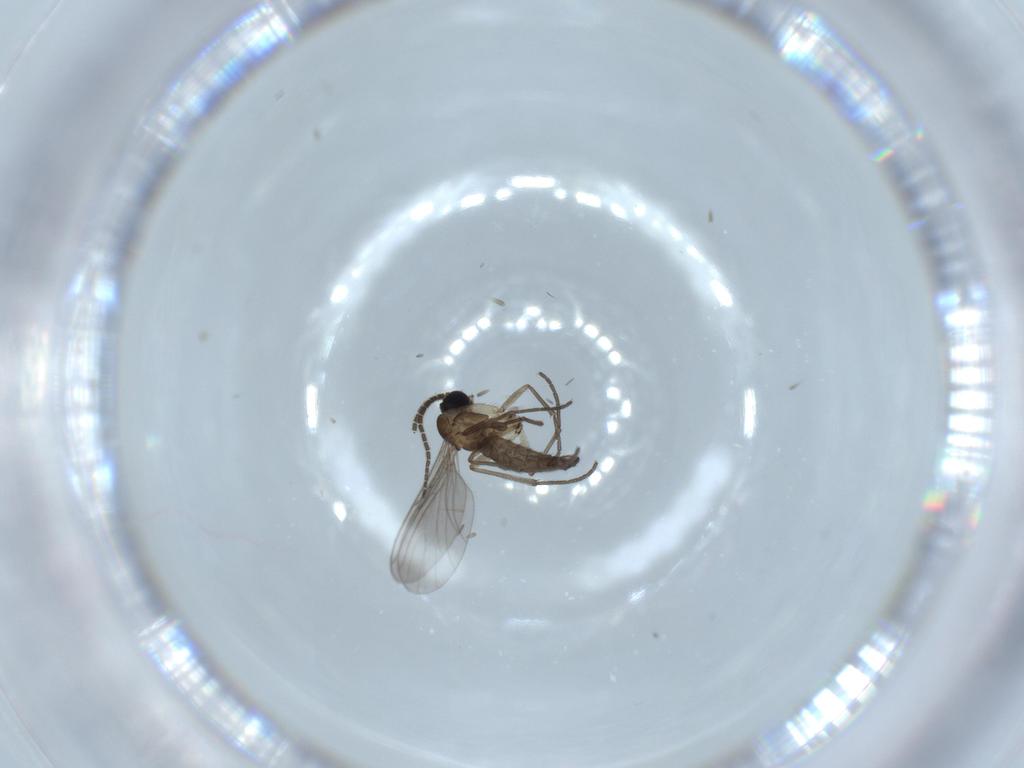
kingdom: Animalia
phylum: Arthropoda
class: Insecta
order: Diptera
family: Sciaridae
